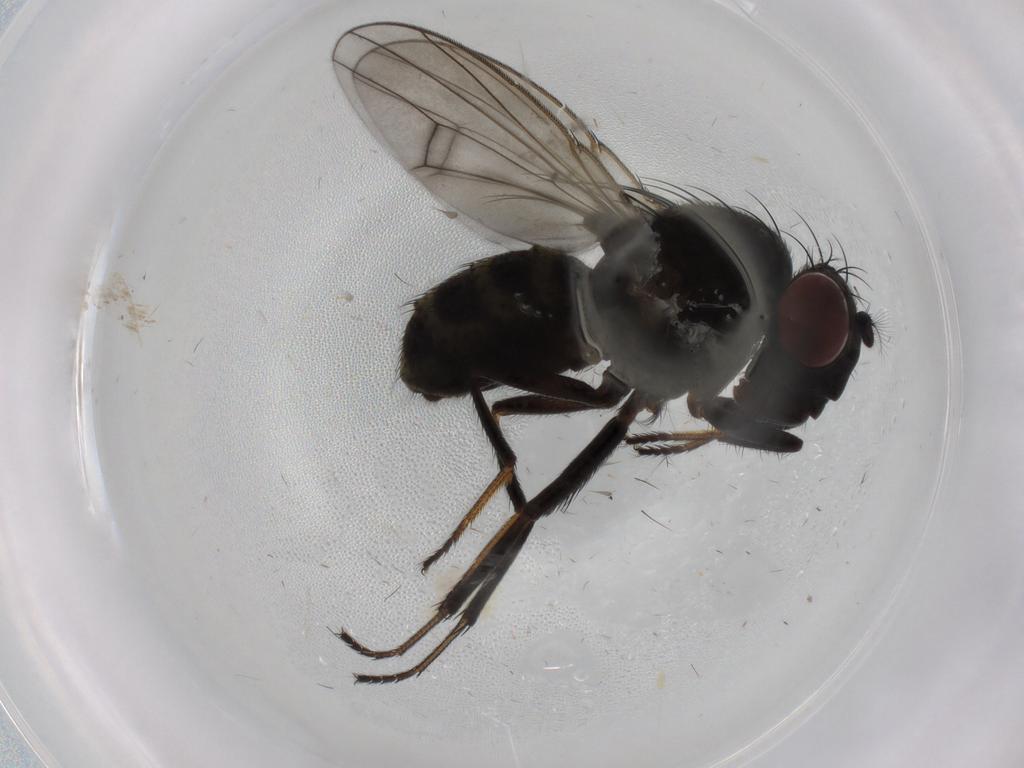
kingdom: Animalia
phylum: Arthropoda
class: Insecta
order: Diptera
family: Ephydridae
